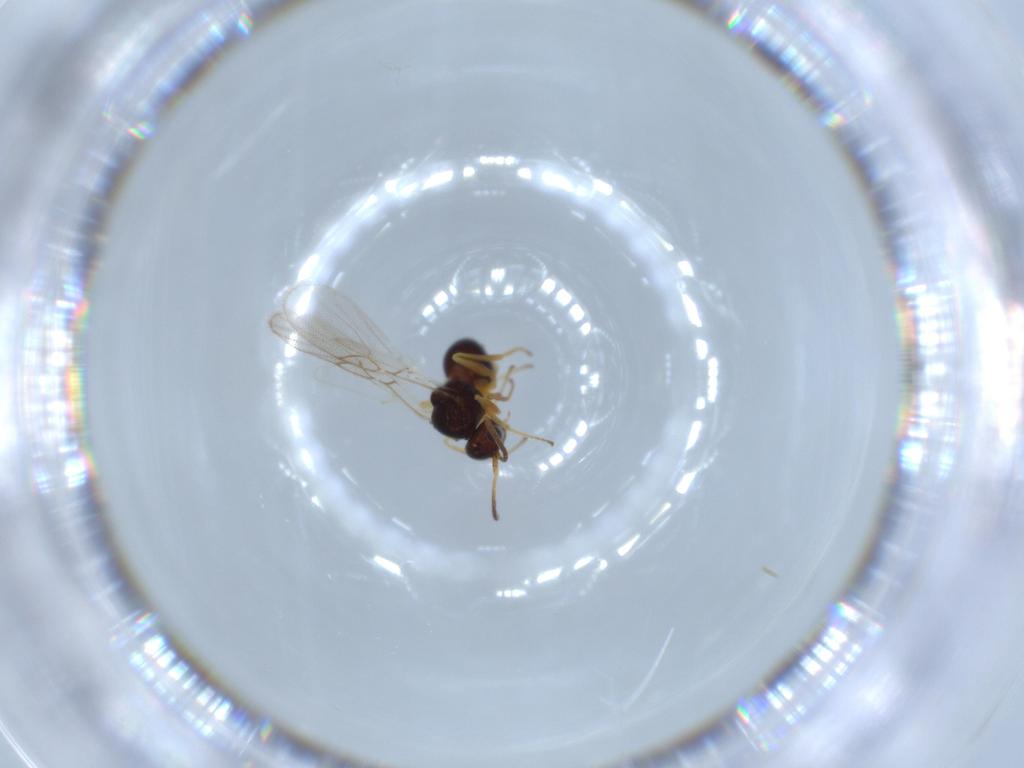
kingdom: Animalia
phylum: Arthropoda
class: Insecta
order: Hymenoptera
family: Figitidae
